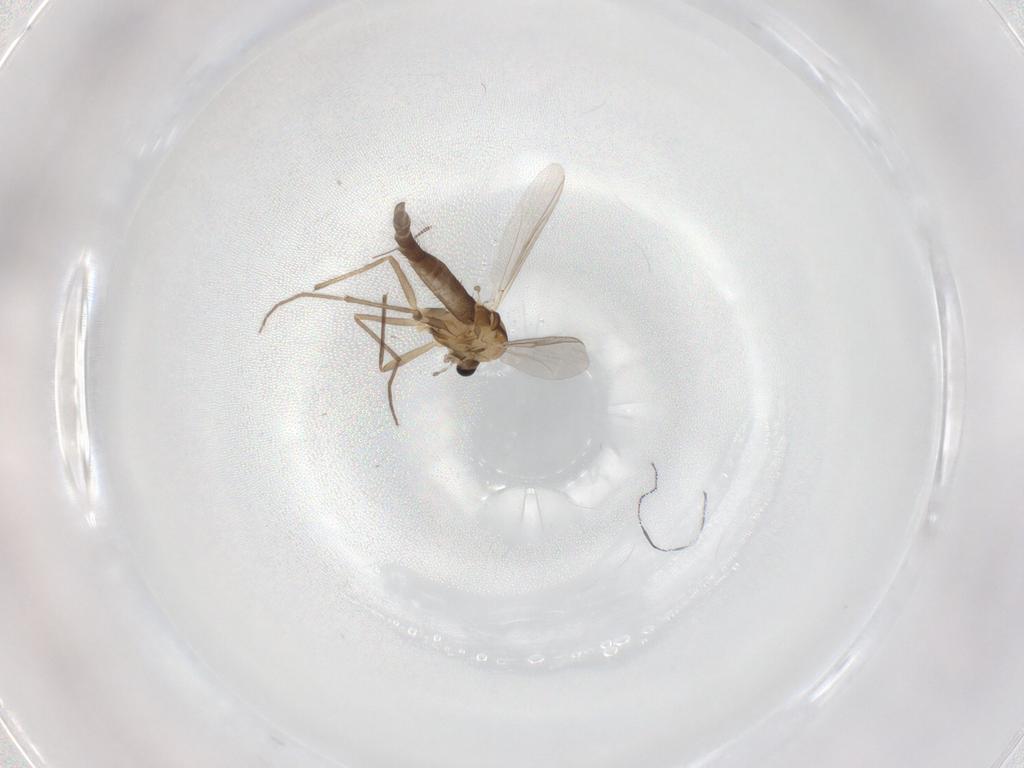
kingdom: Animalia
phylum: Arthropoda
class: Insecta
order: Diptera
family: Chironomidae
